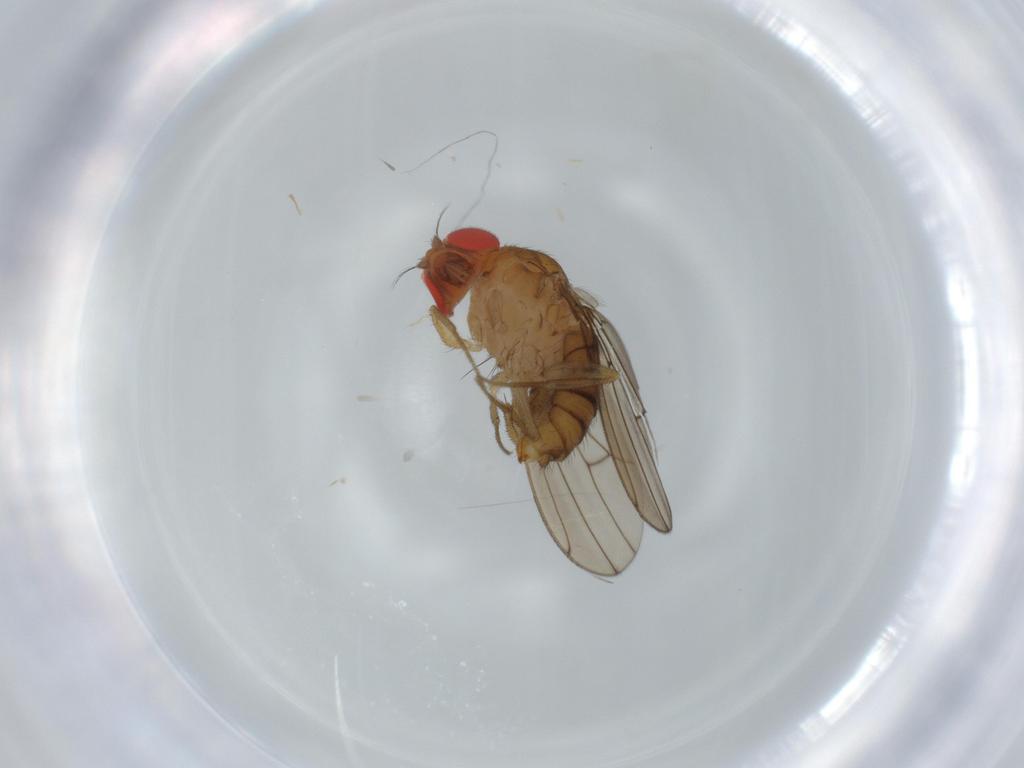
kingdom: Animalia
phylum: Arthropoda
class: Insecta
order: Diptera
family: Drosophilidae
